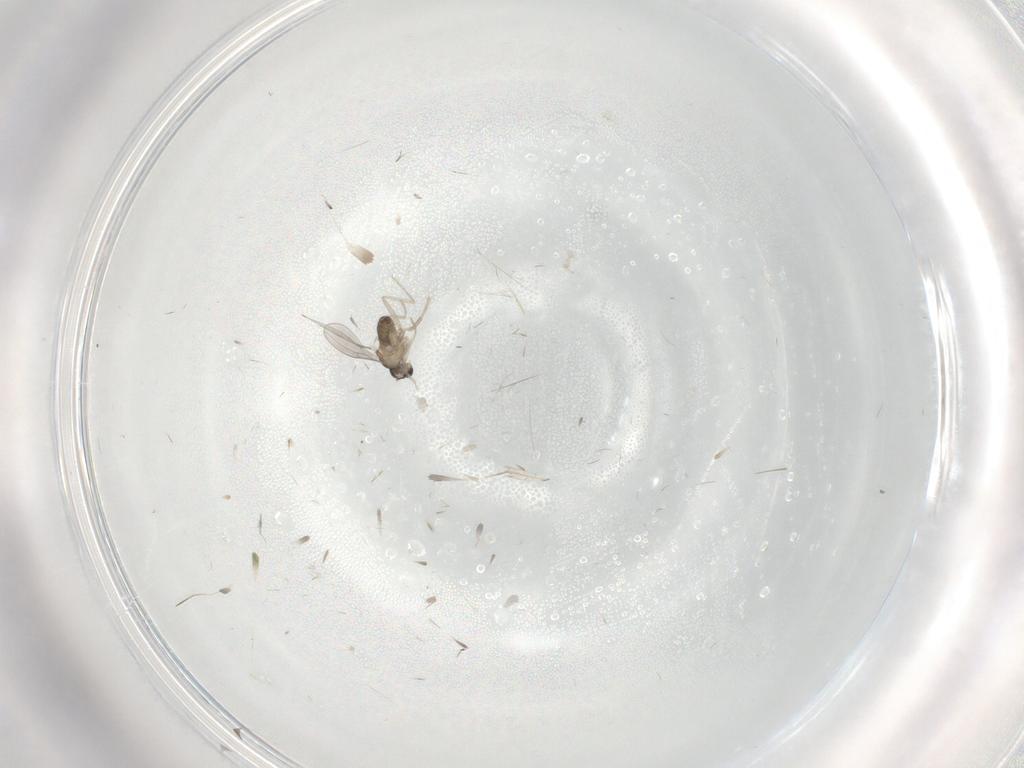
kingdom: Animalia
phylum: Arthropoda
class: Insecta
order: Diptera
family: Cecidomyiidae
